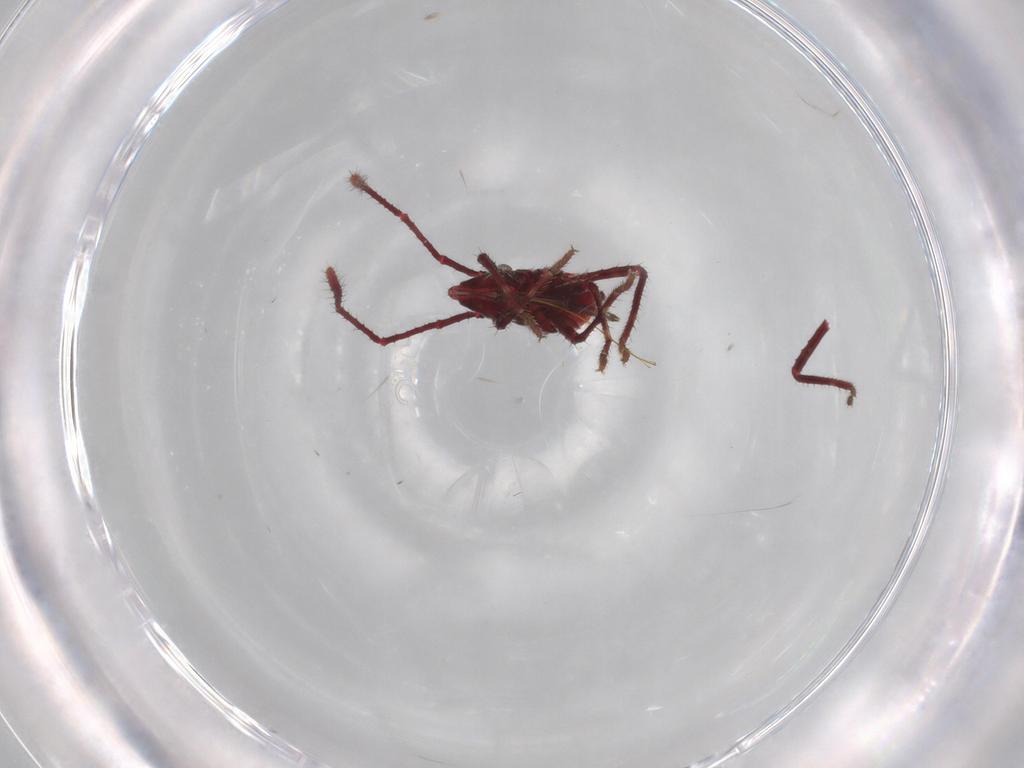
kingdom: Animalia
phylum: Arthropoda
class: Insecta
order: Hemiptera
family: Coreidae
